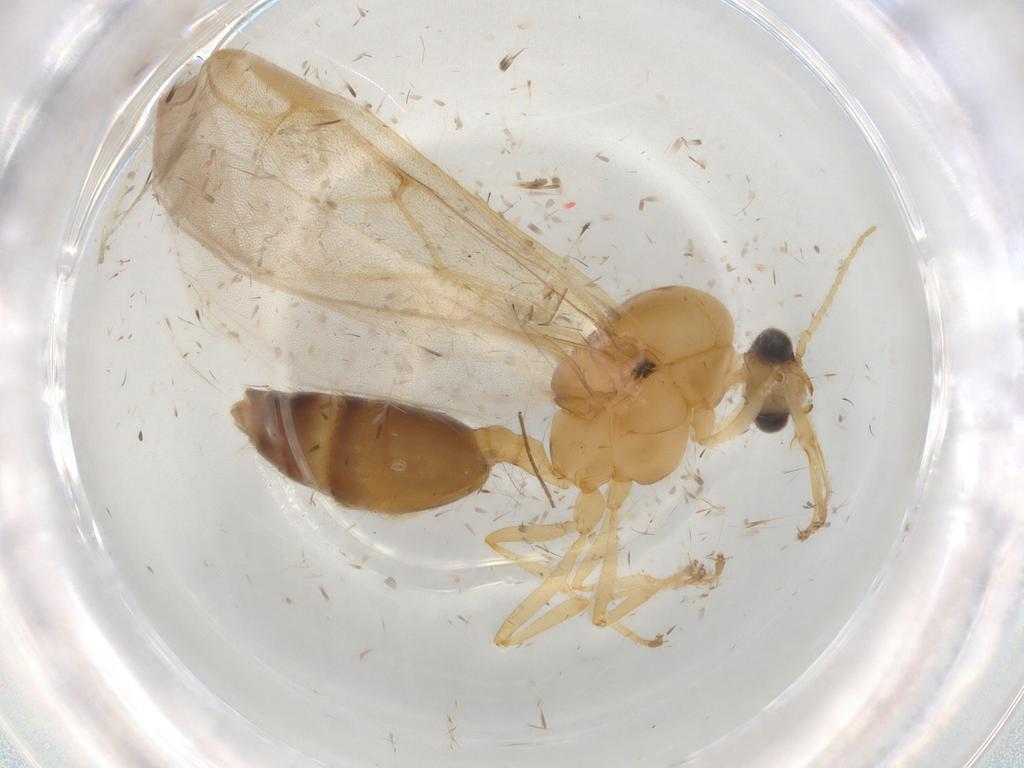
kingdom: Animalia
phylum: Arthropoda
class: Insecta
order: Hymenoptera
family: Formicidae
